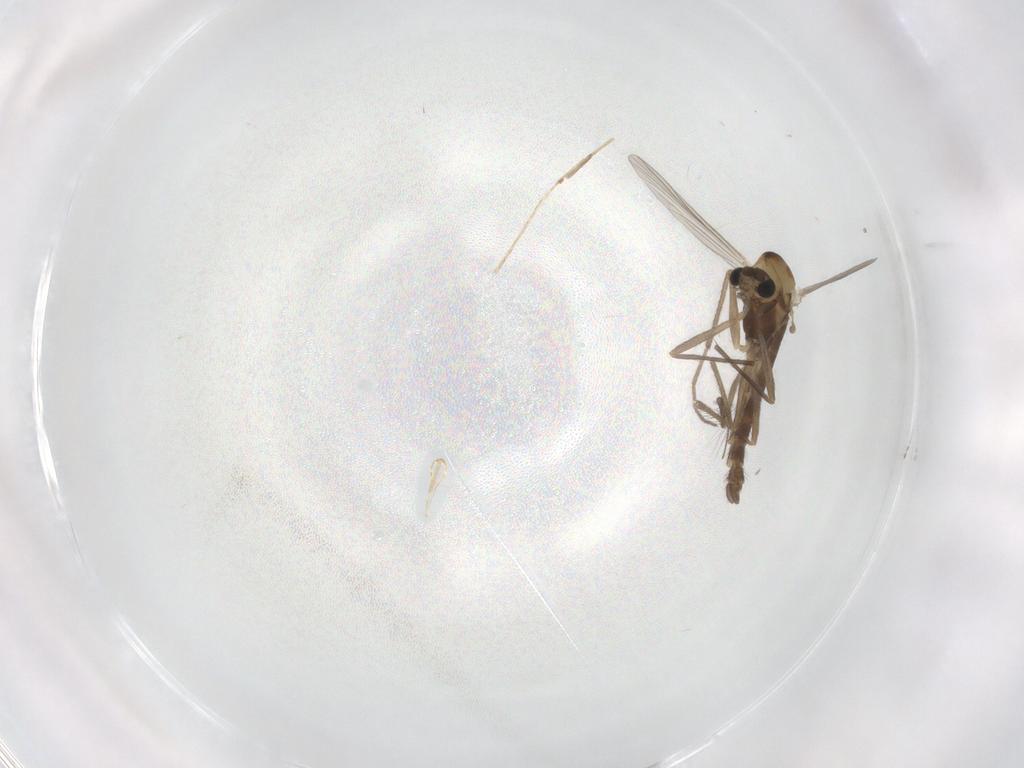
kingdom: Animalia
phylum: Arthropoda
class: Insecta
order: Diptera
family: Chironomidae
